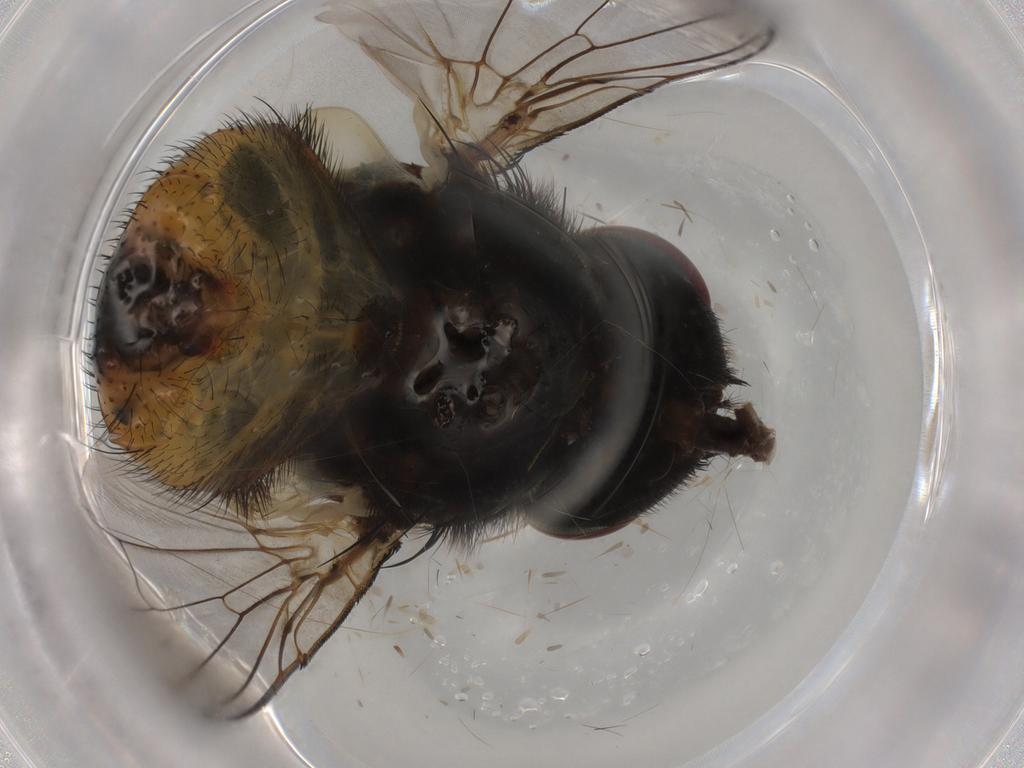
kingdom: Animalia
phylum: Arthropoda
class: Insecta
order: Diptera
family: Muscidae
